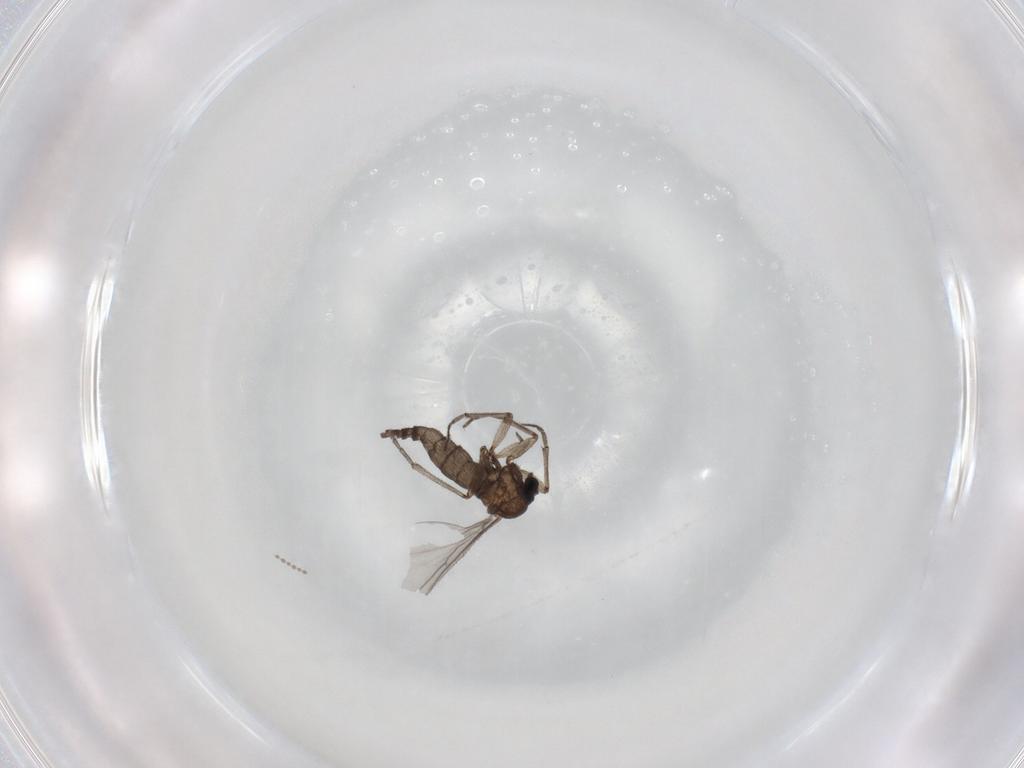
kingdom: Animalia
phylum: Arthropoda
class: Insecta
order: Diptera
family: Sciaridae
